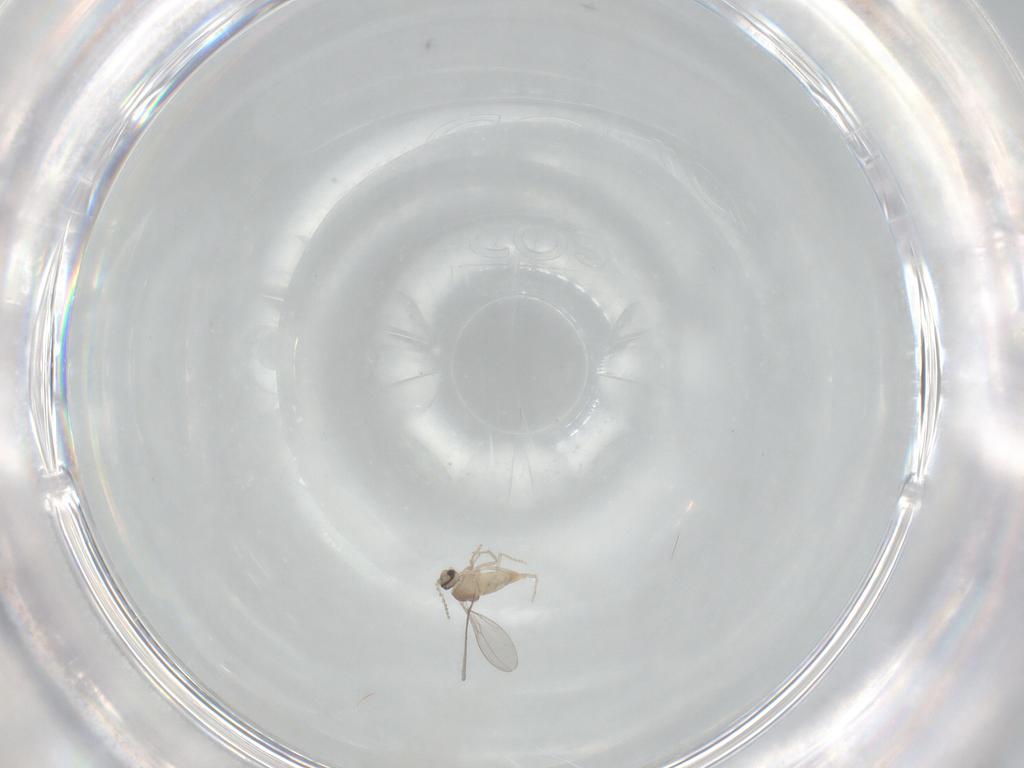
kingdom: Animalia
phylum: Arthropoda
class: Insecta
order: Diptera
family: Cecidomyiidae
